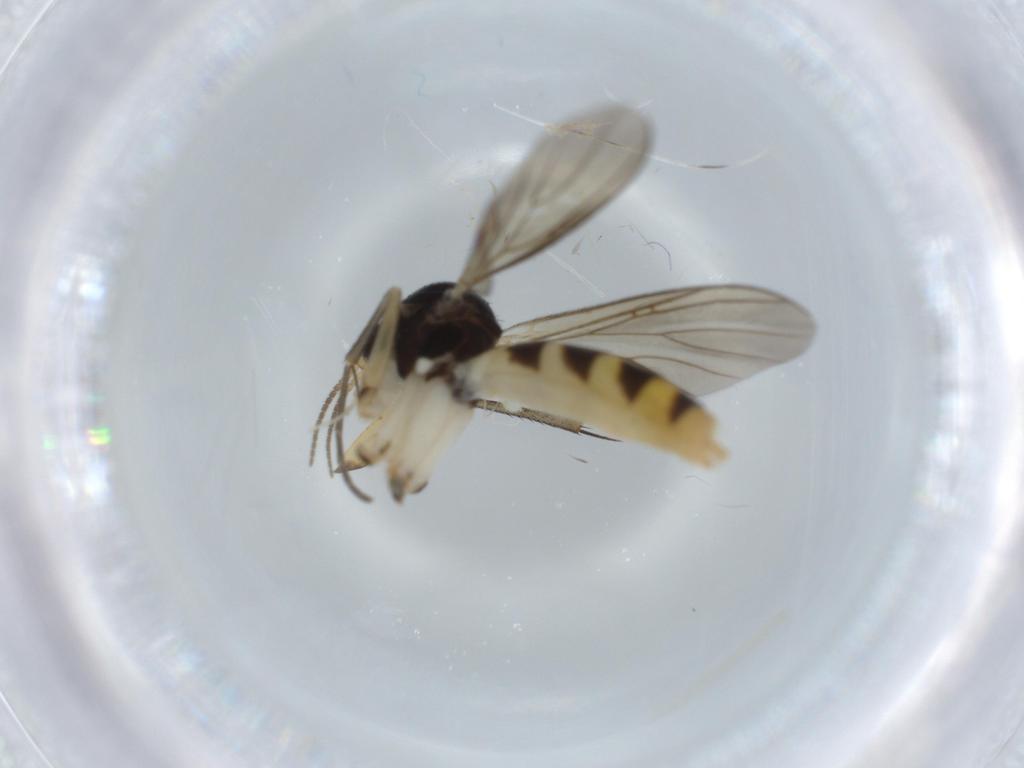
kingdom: Animalia
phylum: Arthropoda
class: Insecta
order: Diptera
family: Mycetophilidae
